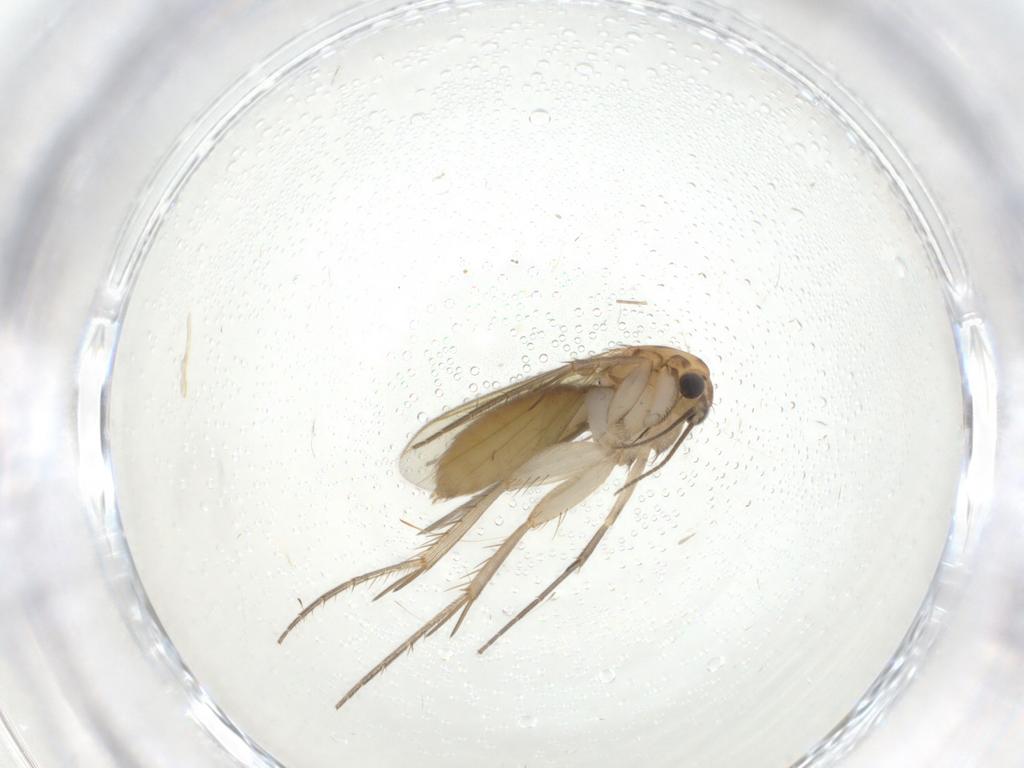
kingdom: Animalia
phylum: Arthropoda
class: Insecta
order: Diptera
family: Mycetophilidae
